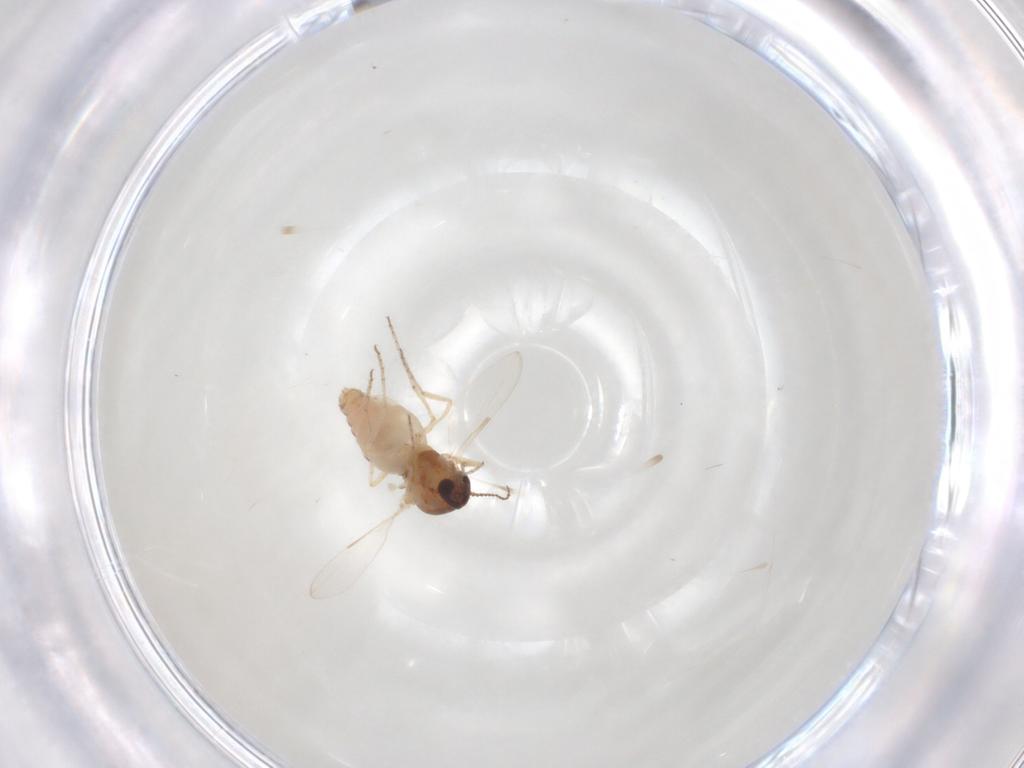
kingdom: Animalia
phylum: Arthropoda
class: Insecta
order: Diptera
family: Ceratopogonidae
